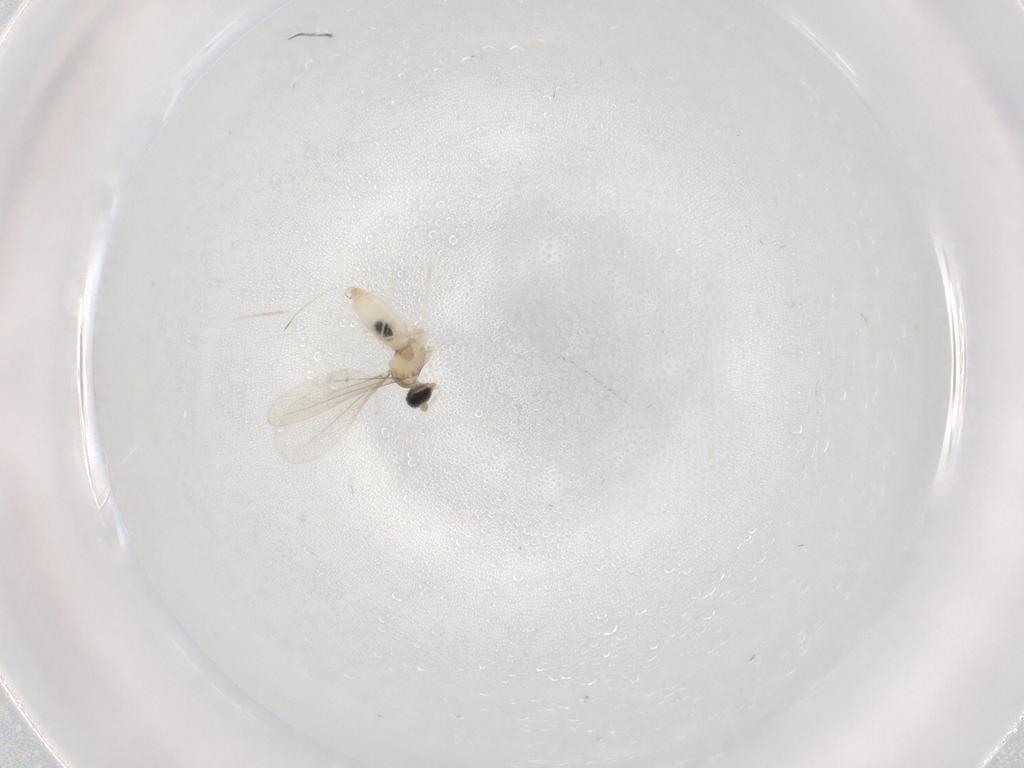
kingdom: Animalia
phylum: Arthropoda
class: Insecta
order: Diptera
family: Cecidomyiidae
